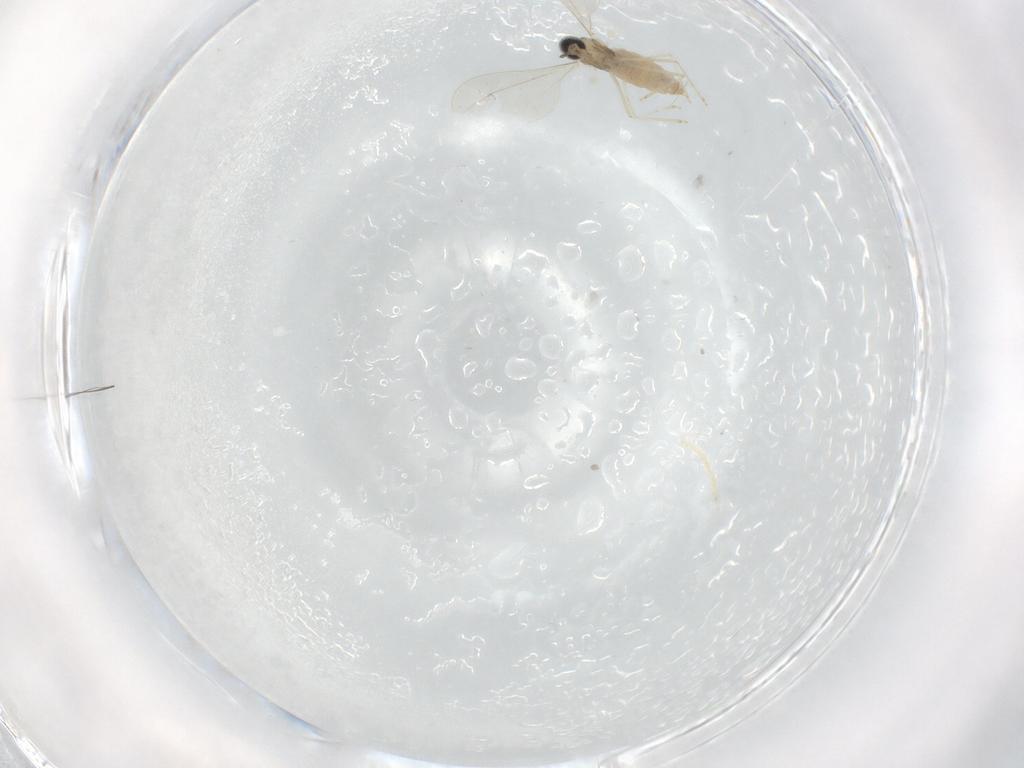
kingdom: Animalia
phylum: Arthropoda
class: Insecta
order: Diptera
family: Cecidomyiidae
